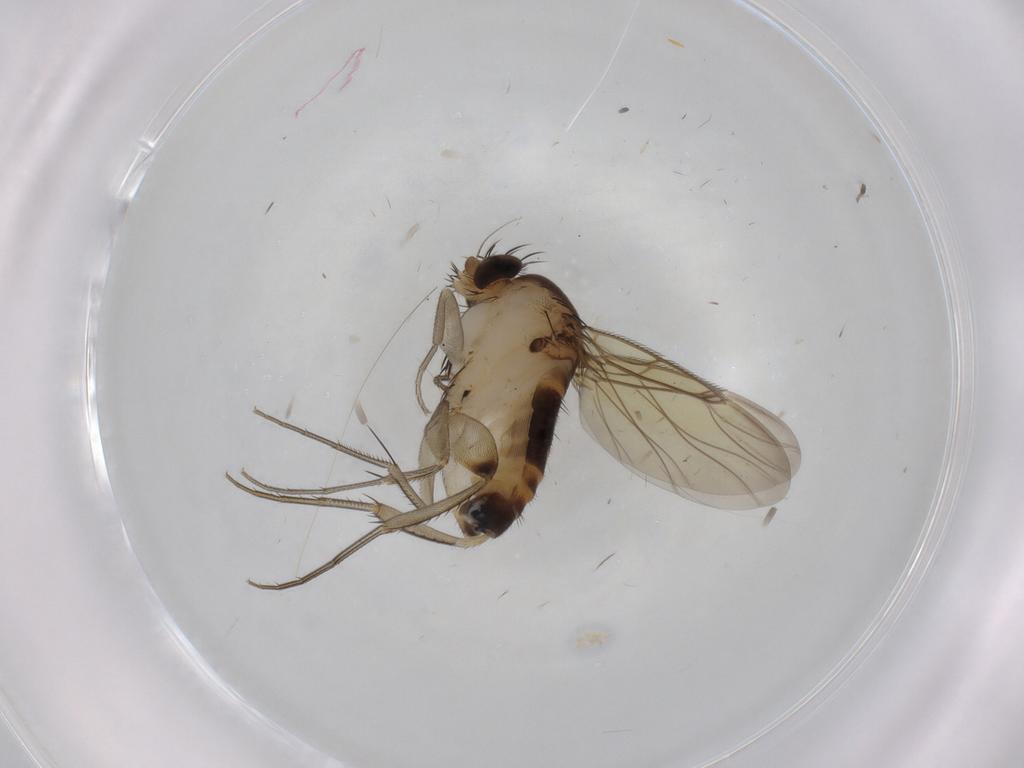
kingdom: Animalia
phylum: Arthropoda
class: Insecta
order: Diptera
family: Phoridae
